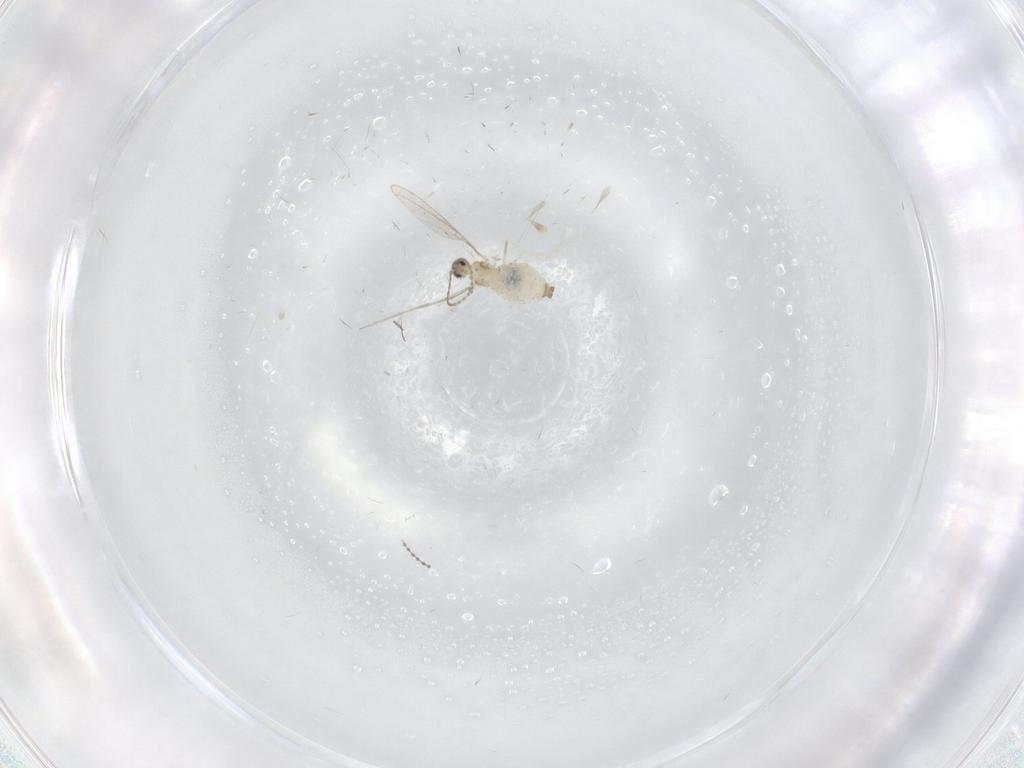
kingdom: Animalia
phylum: Arthropoda
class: Insecta
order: Diptera
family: Cecidomyiidae
